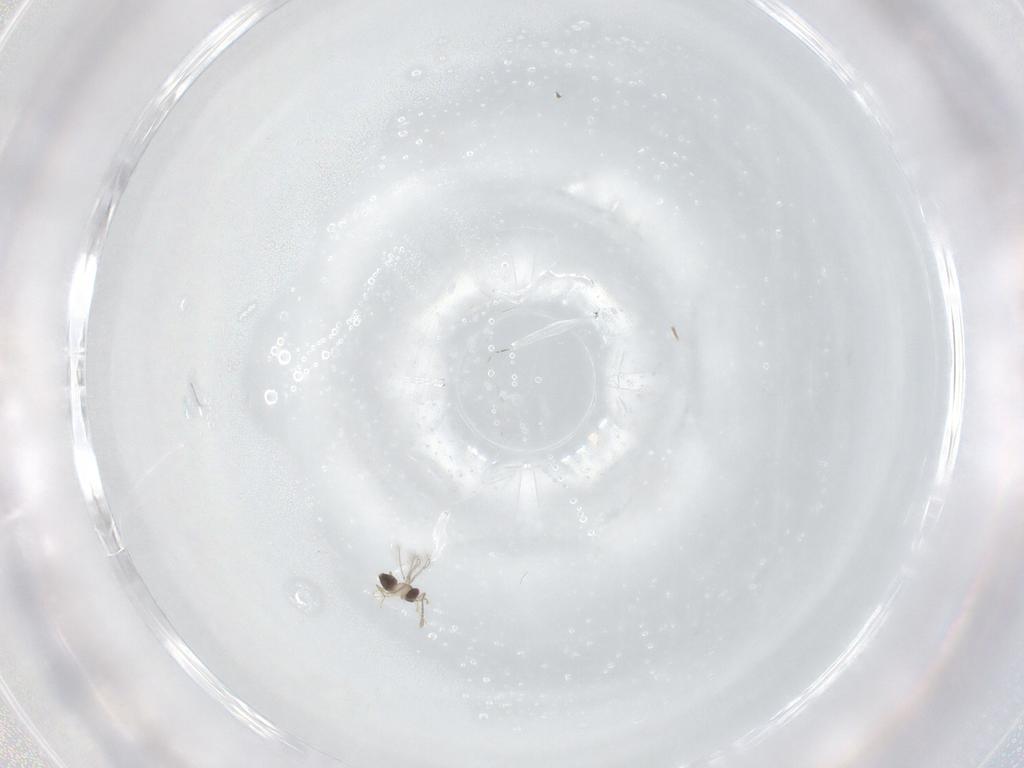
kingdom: Animalia
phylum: Arthropoda
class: Insecta
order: Hymenoptera
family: Mymaridae
